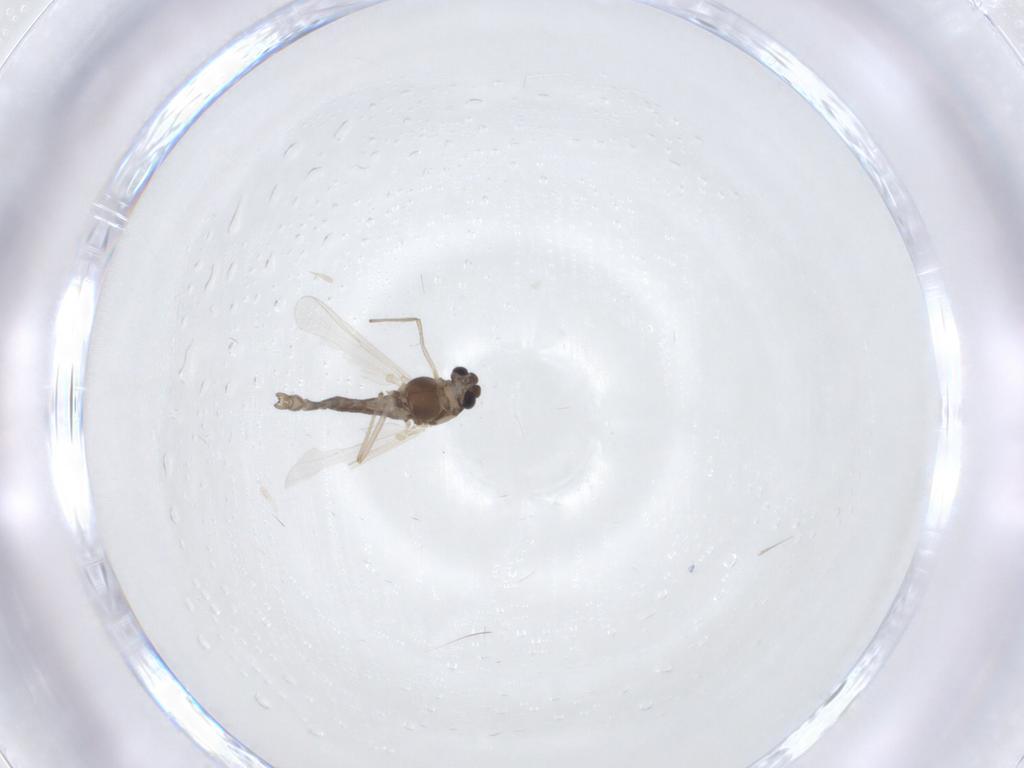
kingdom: Animalia
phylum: Arthropoda
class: Insecta
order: Diptera
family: Chironomidae
